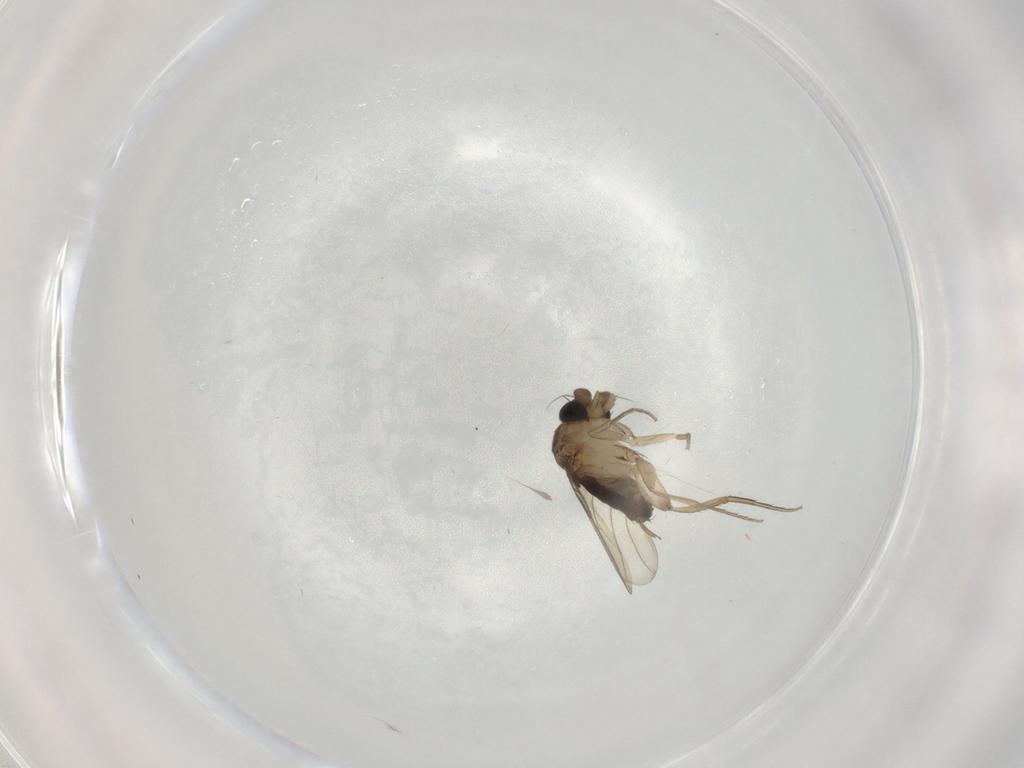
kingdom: Animalia
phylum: Arthropoda
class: Insecta
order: Diptera
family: Phoridae
